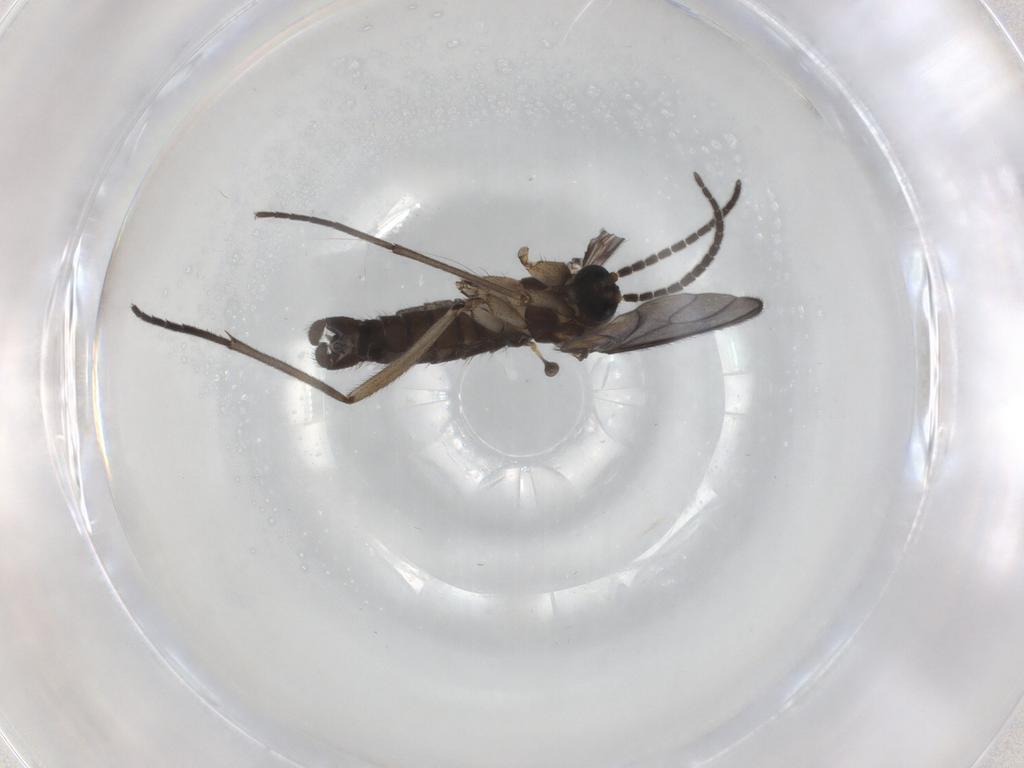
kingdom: Animalia
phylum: Arthropoda
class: Insecta
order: Diptera
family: Sciaridae
